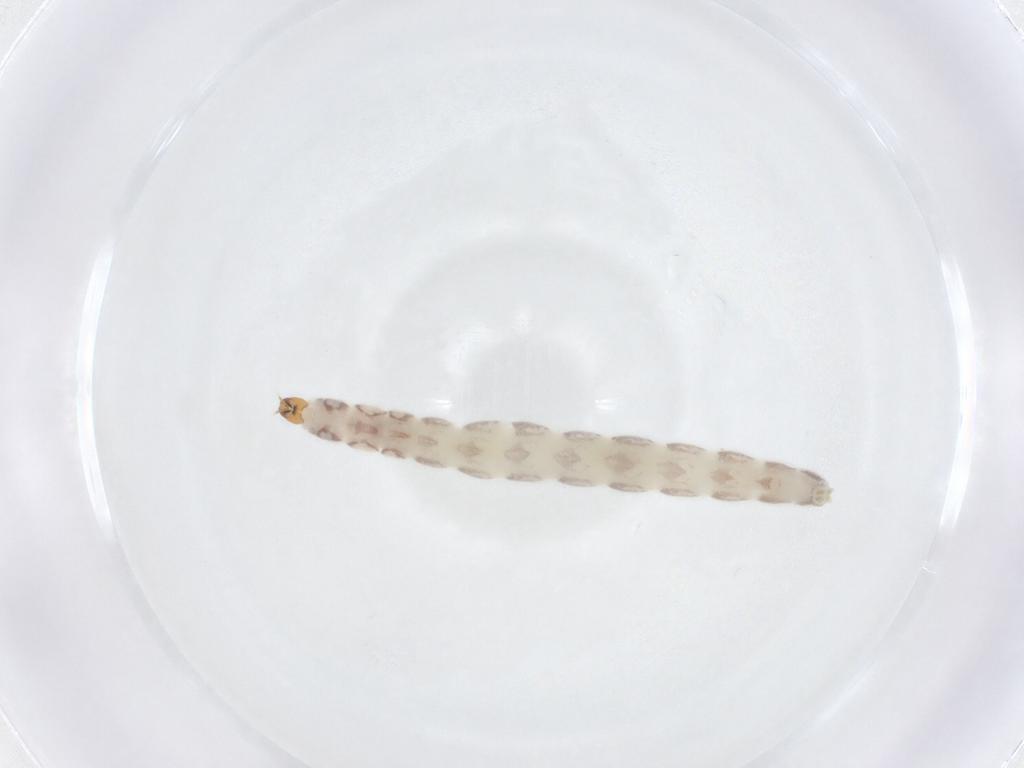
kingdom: Animalia
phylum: Arthropoda
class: Insecta
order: Diptera
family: Chironomidae
